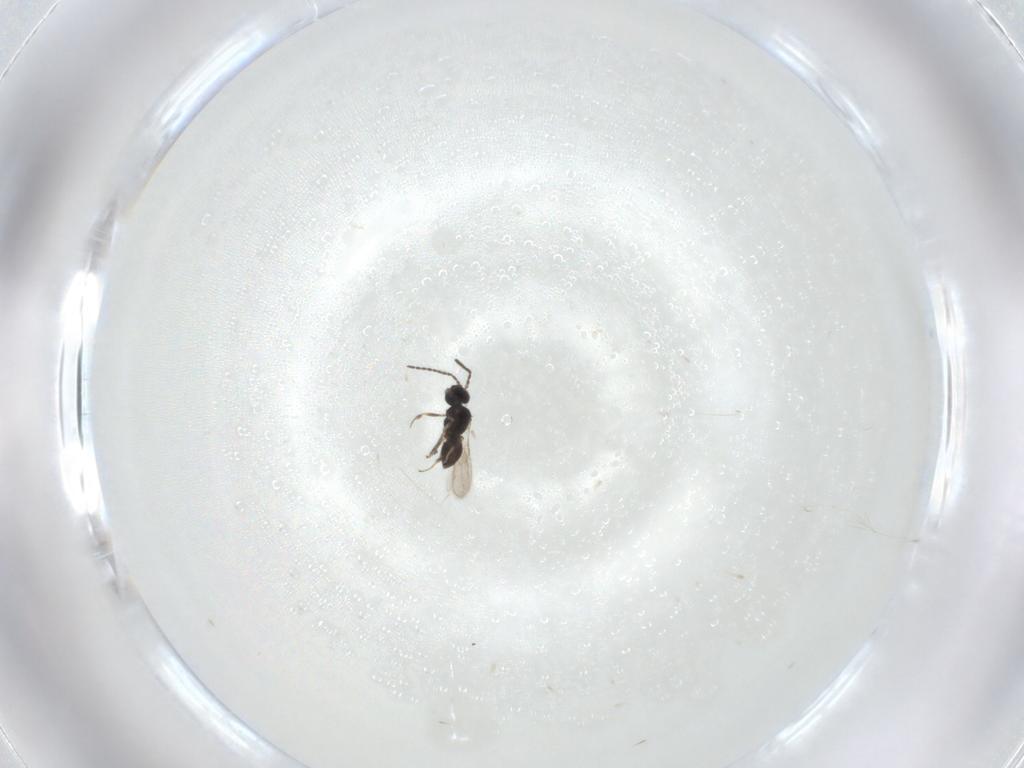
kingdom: Animalia
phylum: Arthropoda
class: Insecta
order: Hymenoptera
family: Scelionidae
